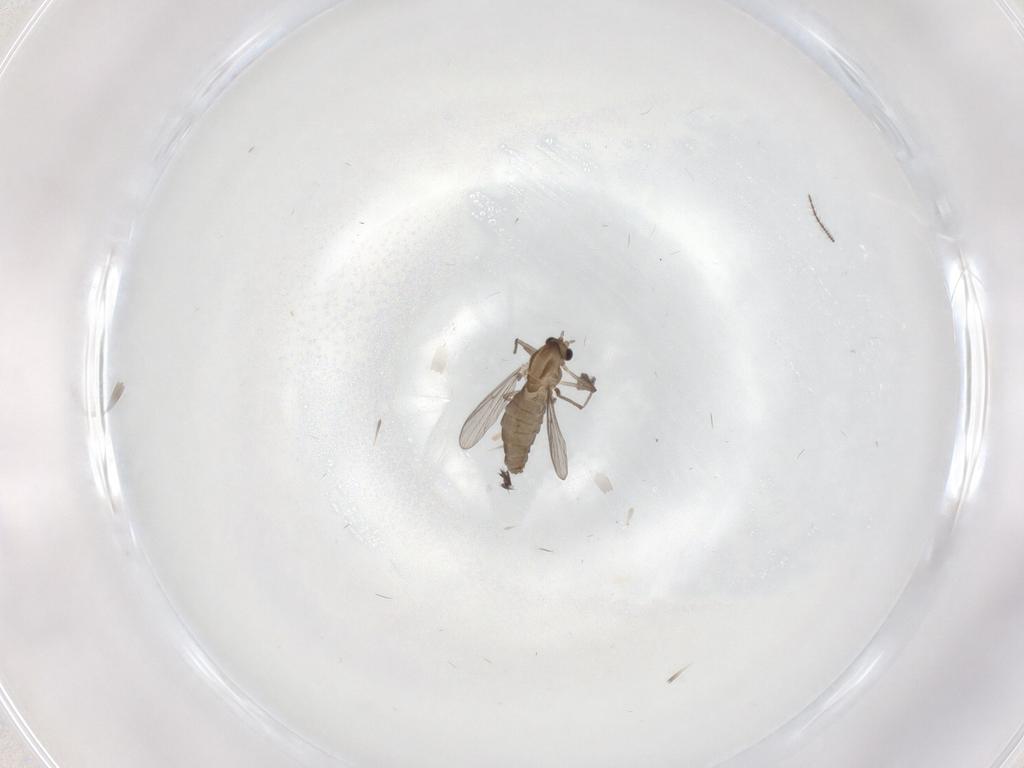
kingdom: Animalia
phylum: Arthropoda
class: Insecta
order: Diptera
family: Chironomidae
